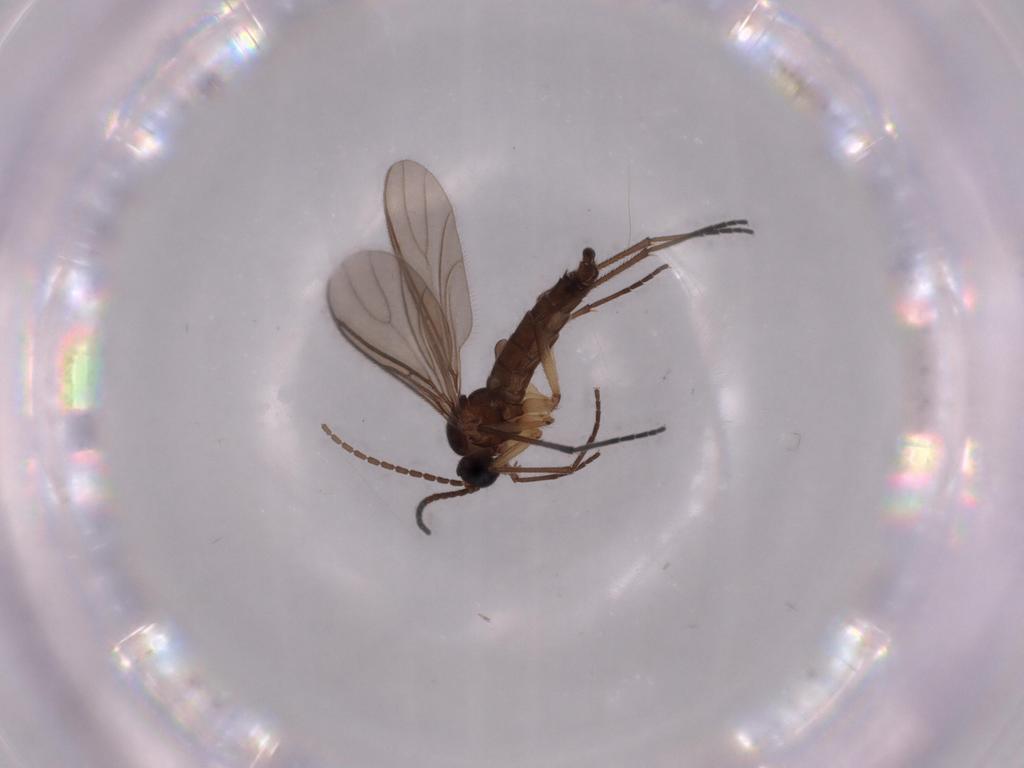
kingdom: Animalia
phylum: Arthropoda
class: Insecta
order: Diptera
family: Sciaridae
